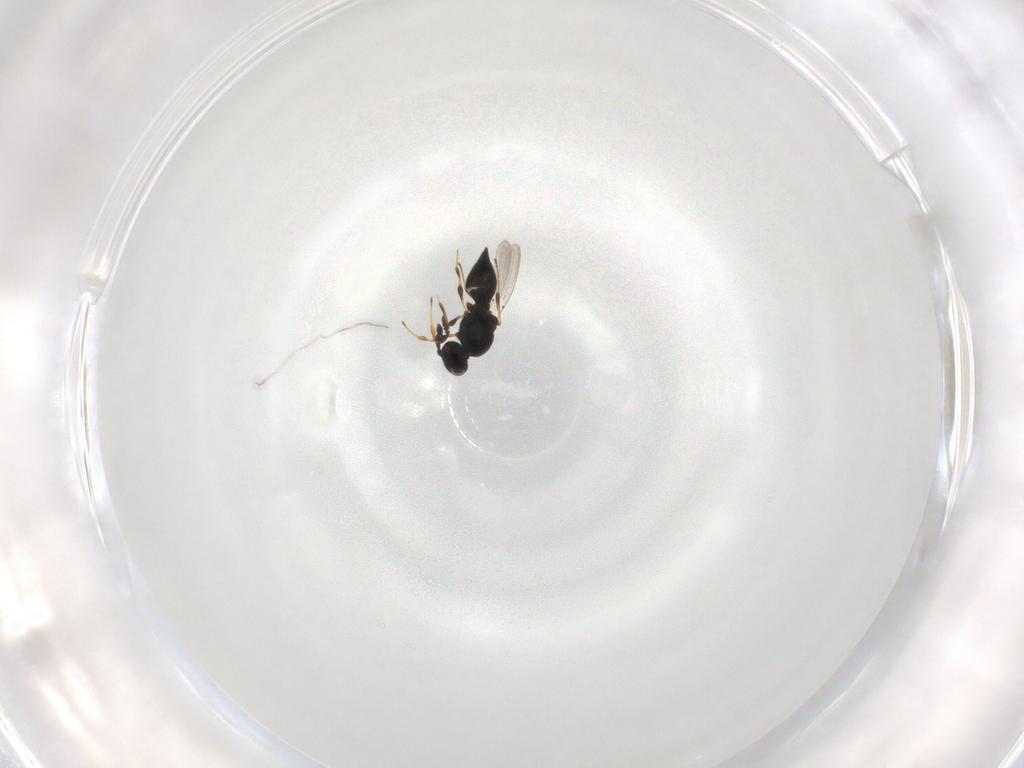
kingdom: Animalia
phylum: Arthropoda
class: Insecta
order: Hymenoptera
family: Platygastridae
